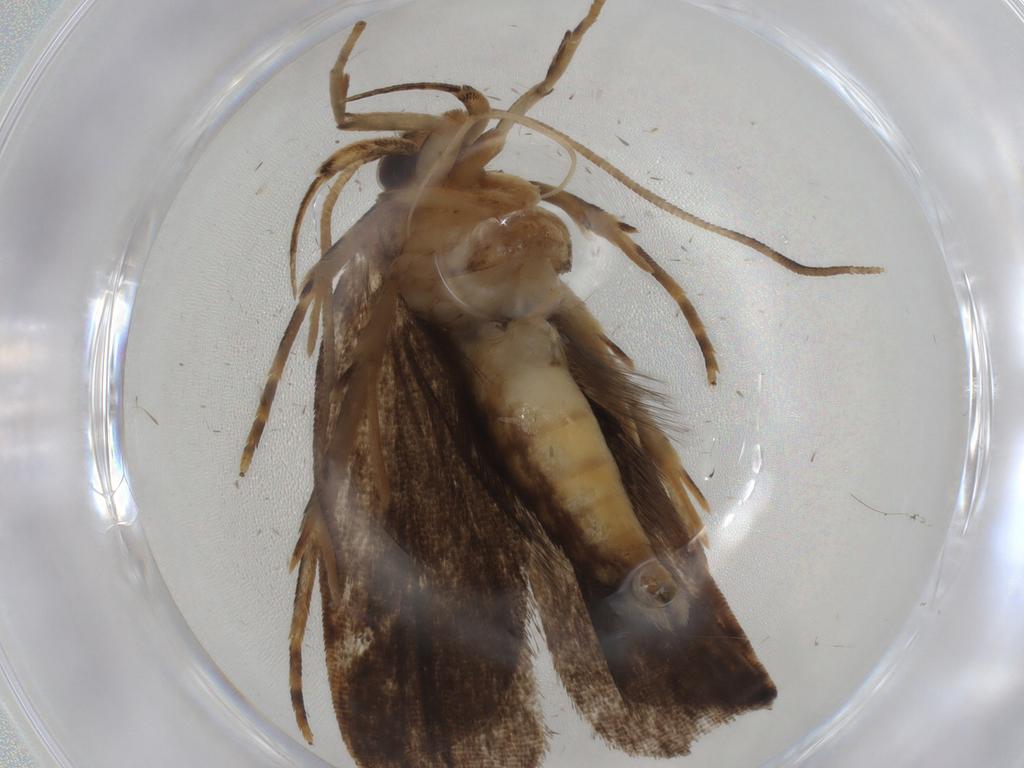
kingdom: Animalia
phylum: Arthropoda
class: Insecta
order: Lepidoptera
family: Gelechiidae
